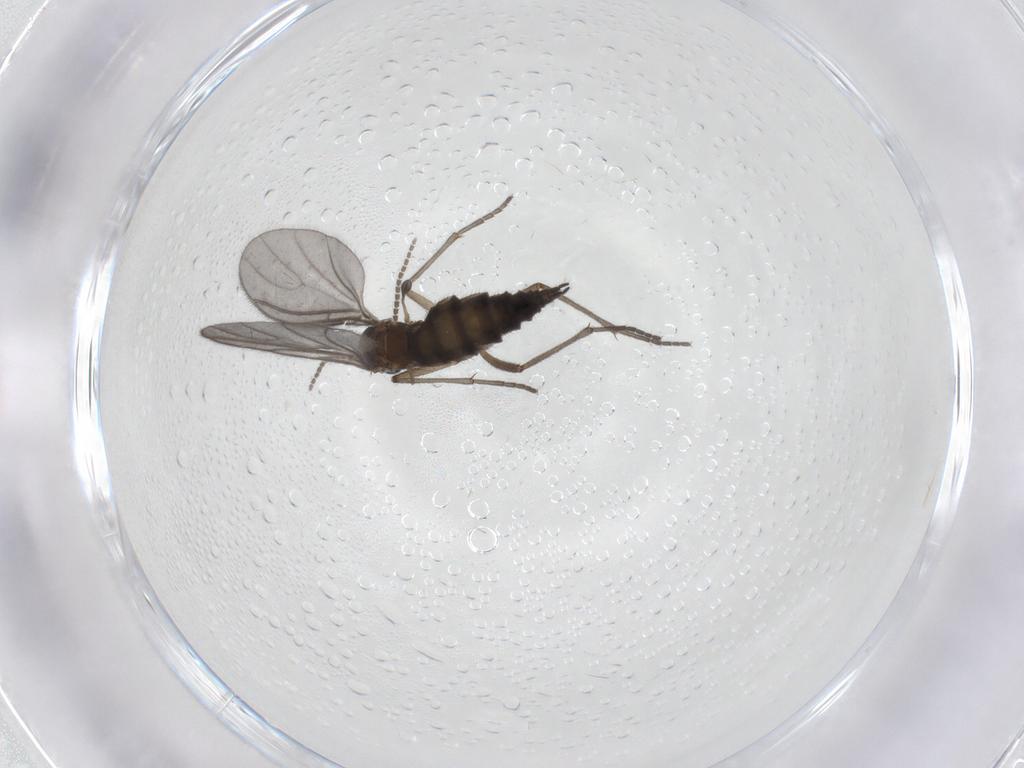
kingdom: Animalia
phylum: Arthropoda
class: Insecta
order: Diptera
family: Sciaridae
